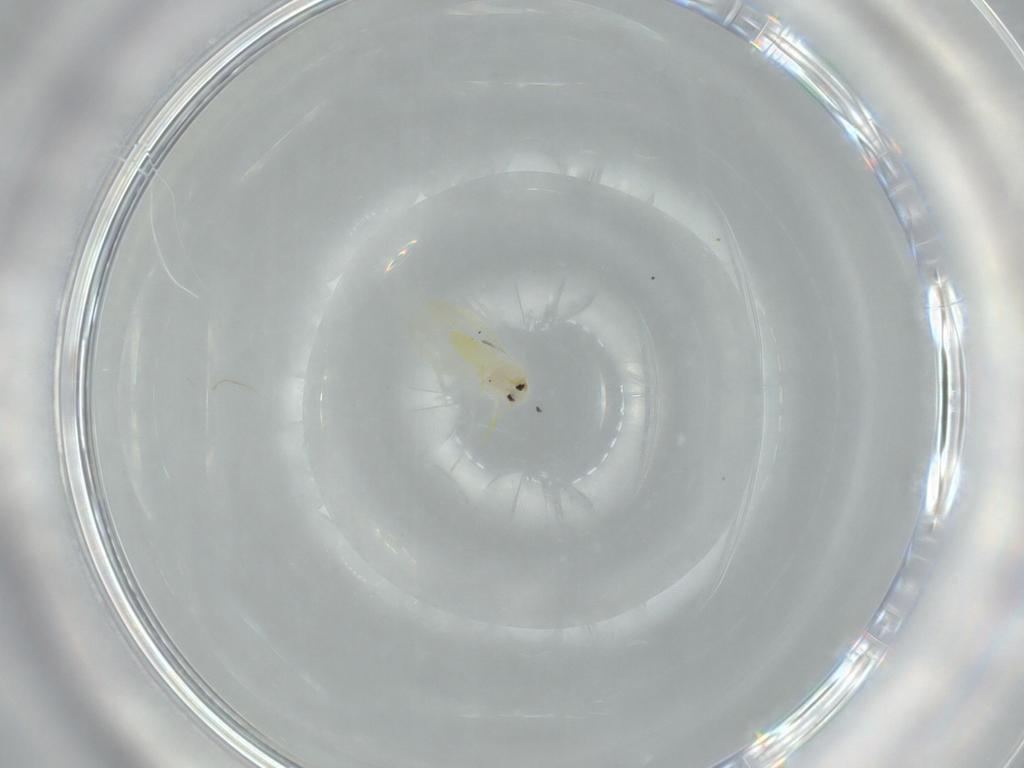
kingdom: Animalia
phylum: Arthropoda
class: Insecta
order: Hemiptera
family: Aleyrodidae
